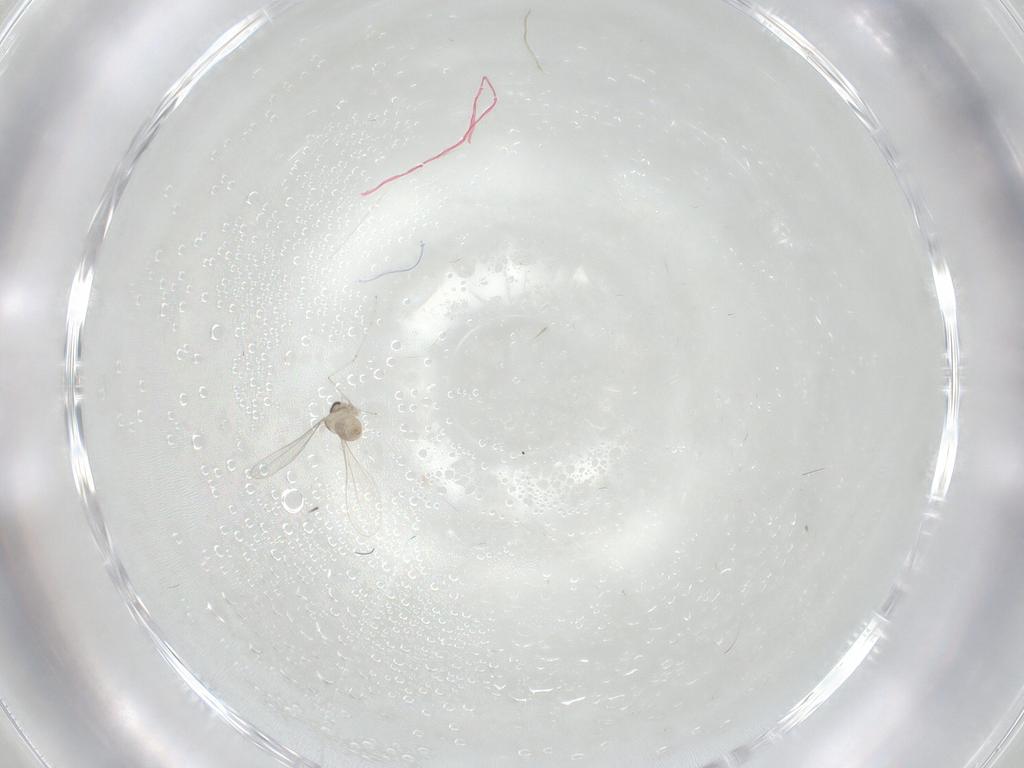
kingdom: Animalia
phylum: Arthropoda
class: Insecta
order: Diptera
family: Cecidomyiidae
